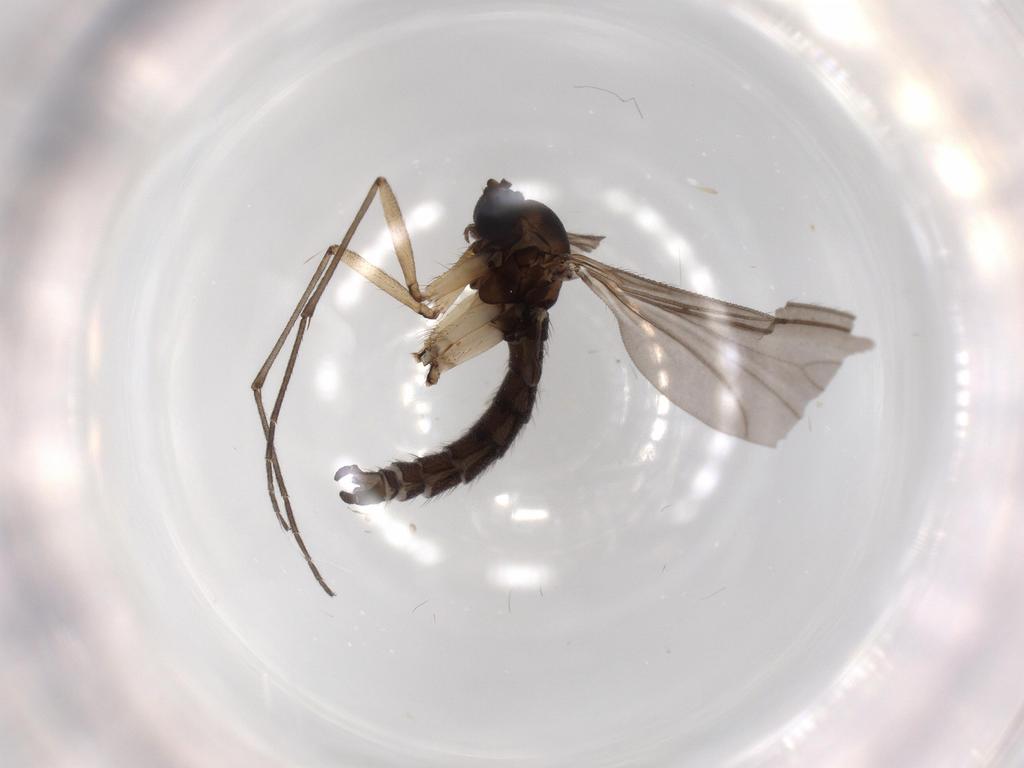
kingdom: Animalia
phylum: Arthropoda
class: Insecta
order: Diptera
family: Sciaridae
